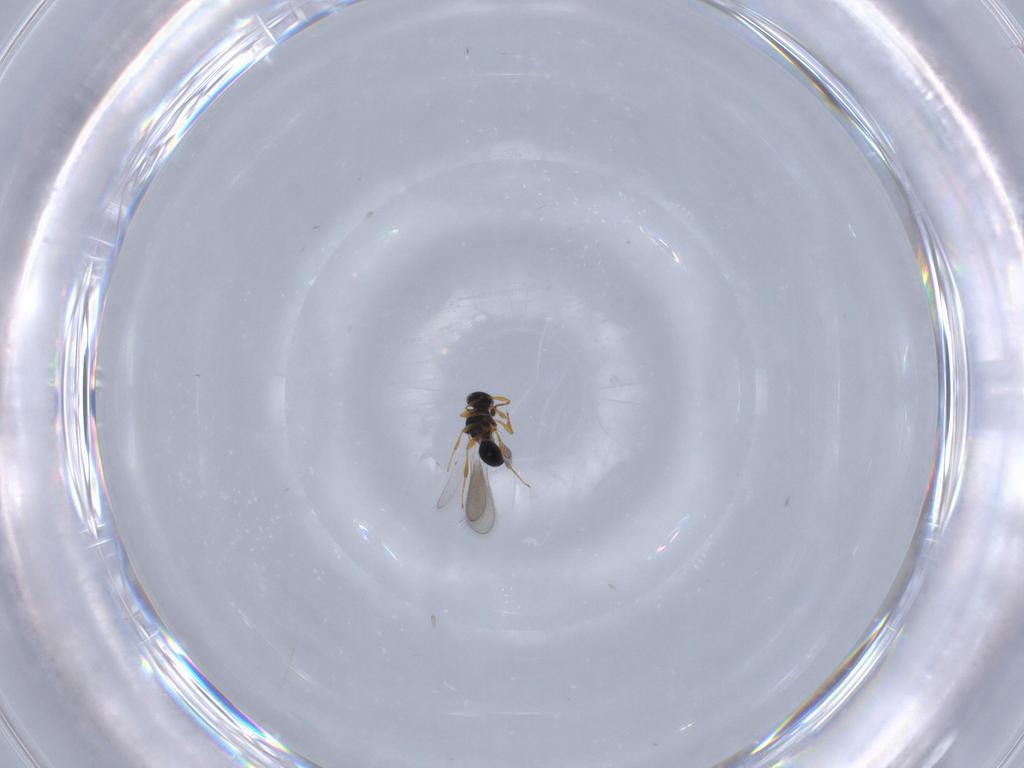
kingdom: Animalia
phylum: Arthropoda
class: Insecta
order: Hymenoptera
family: Platygastridae
